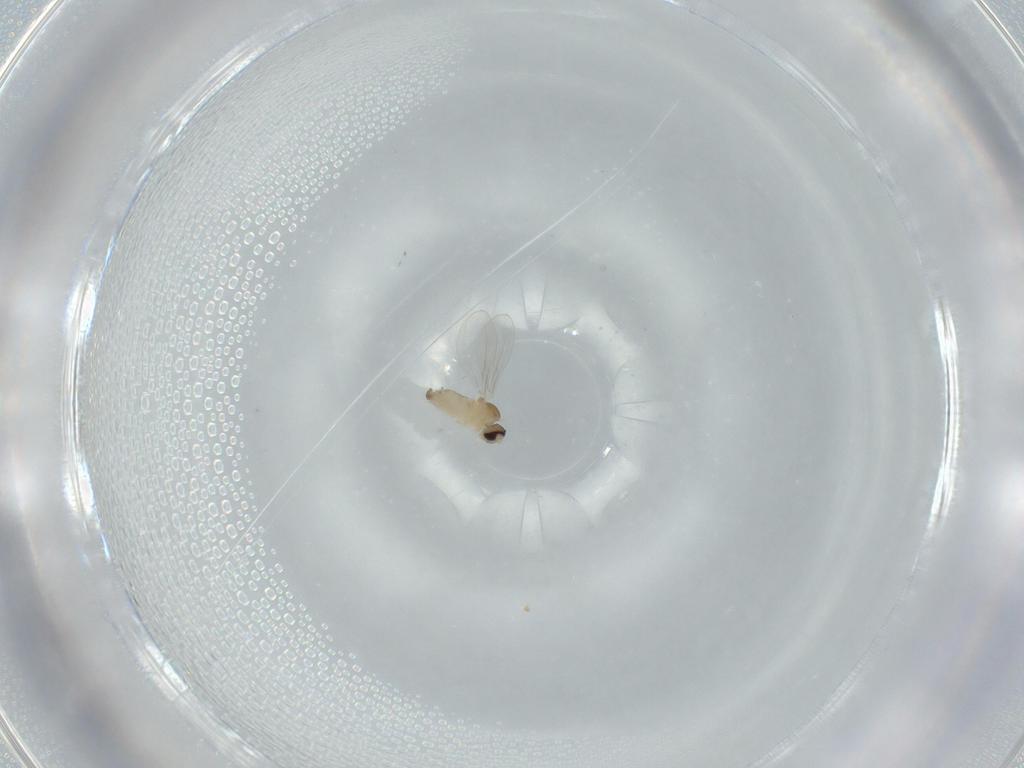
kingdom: Animalia
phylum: Arthropoda
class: Insecta
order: Diptera
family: Cecidomyiidae
